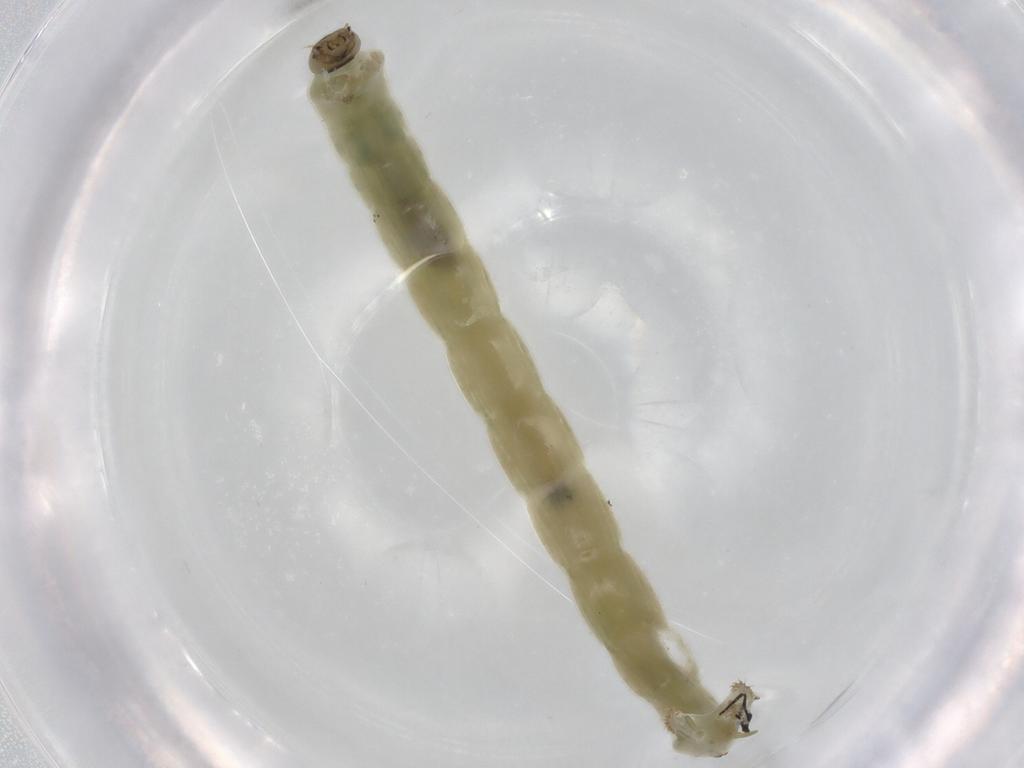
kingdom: Animalia
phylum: Arthropoda
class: Insecta
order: Diptera
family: Chironomidae
